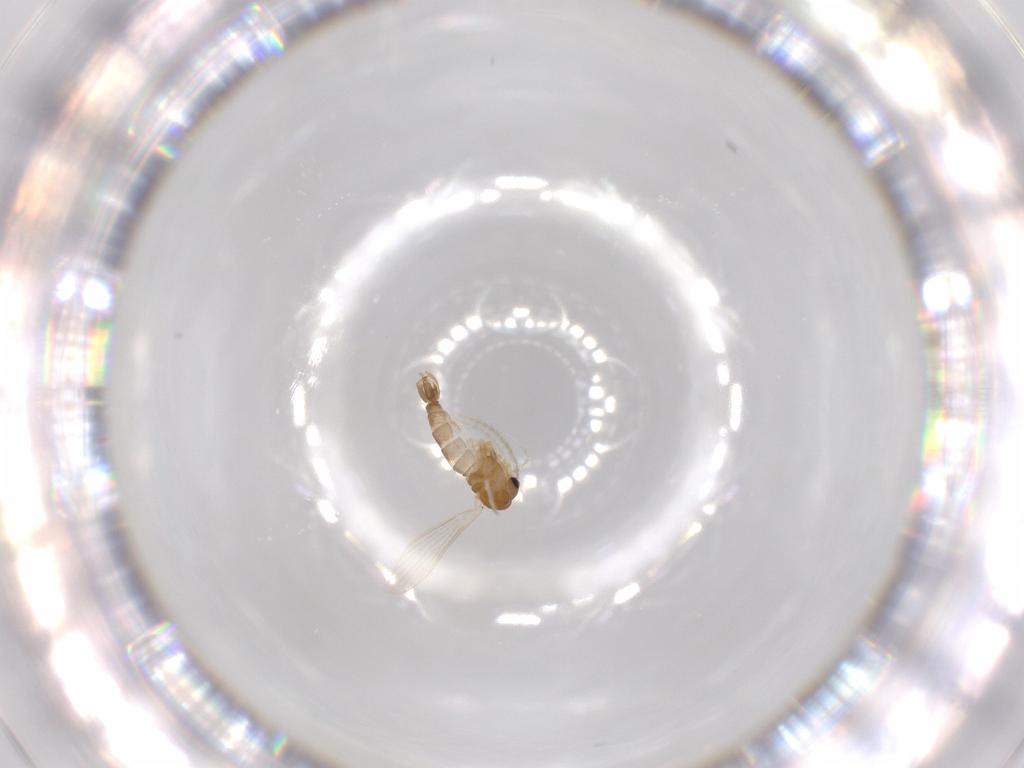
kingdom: Animalia
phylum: Arthropoda
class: Insecta
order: Diptera
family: Psychodidae
